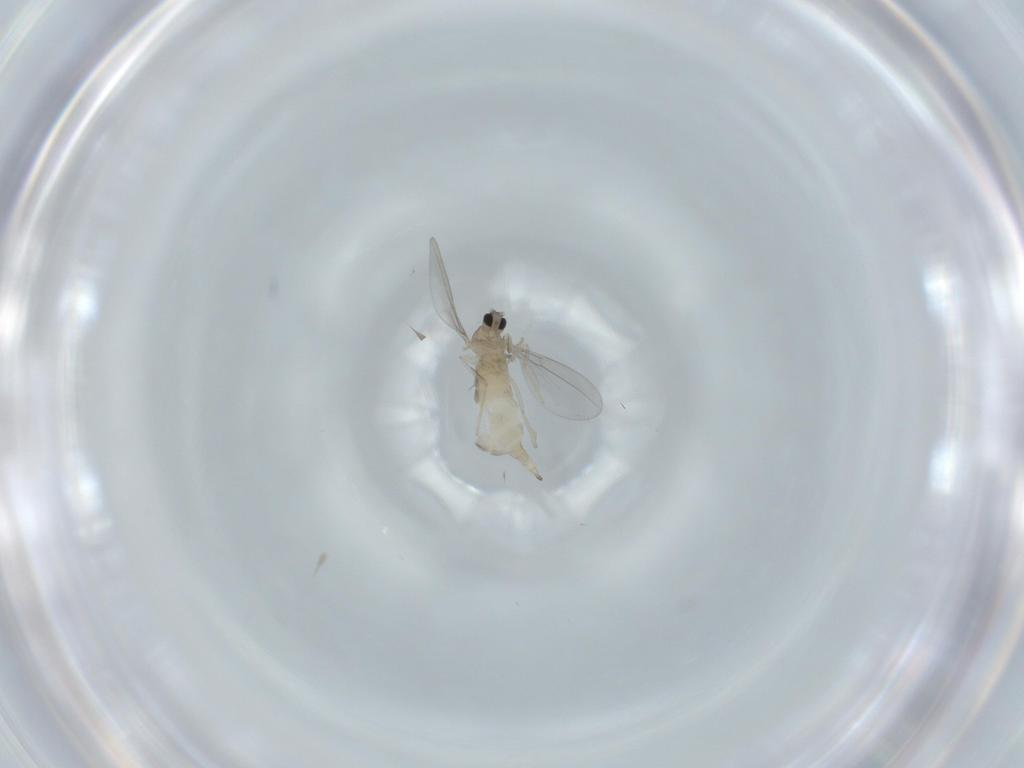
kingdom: Animalia
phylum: Arthropoda
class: Insecta
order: Diptera
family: Cecidomyiidae
